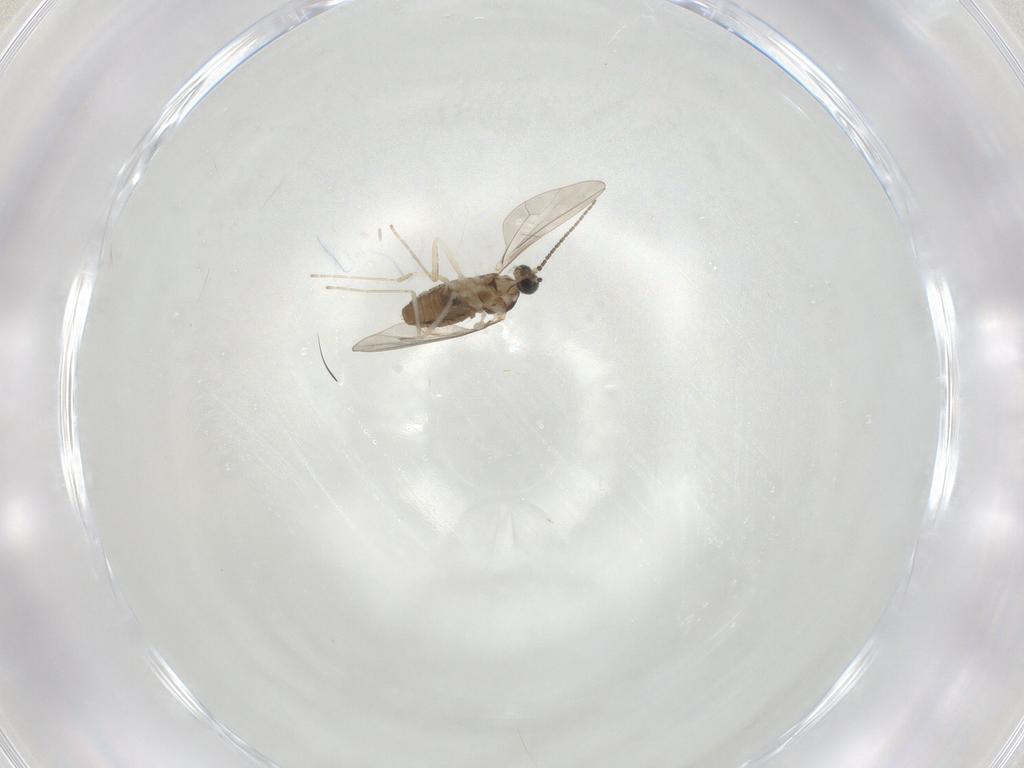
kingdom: Animalia
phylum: Arthropoda
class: Insecta
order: Diptera
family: Cecidomyiidae
